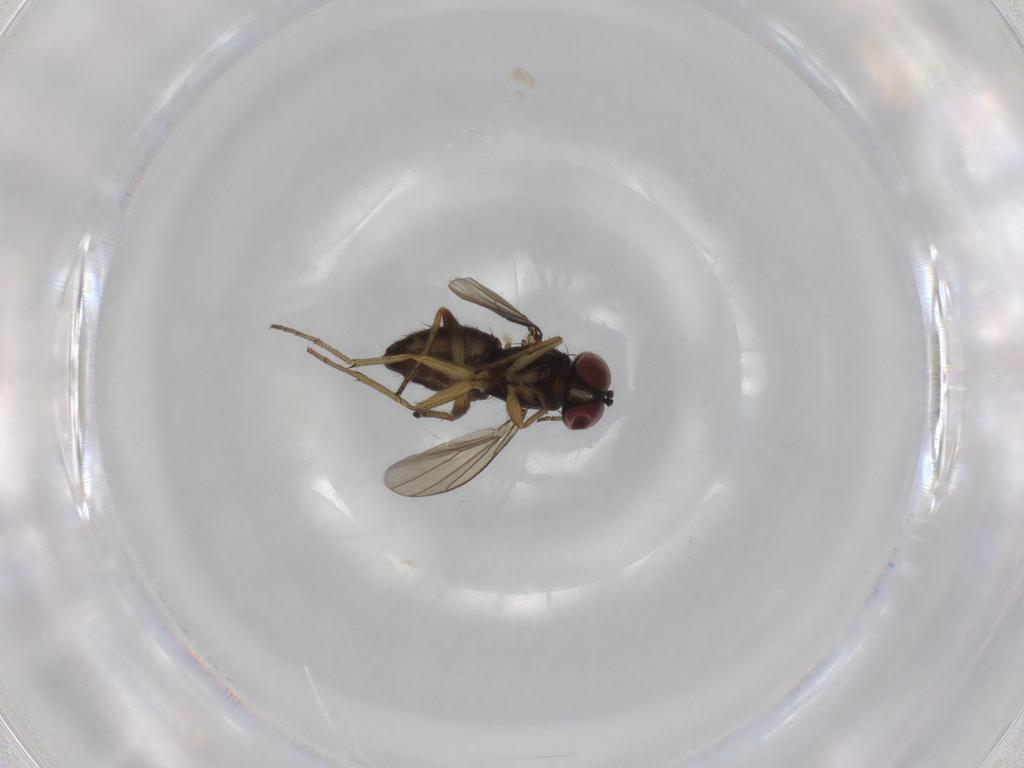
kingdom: Animalia
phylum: Arthropoda
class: Insecta
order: Diptera
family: Dolichopodidae
